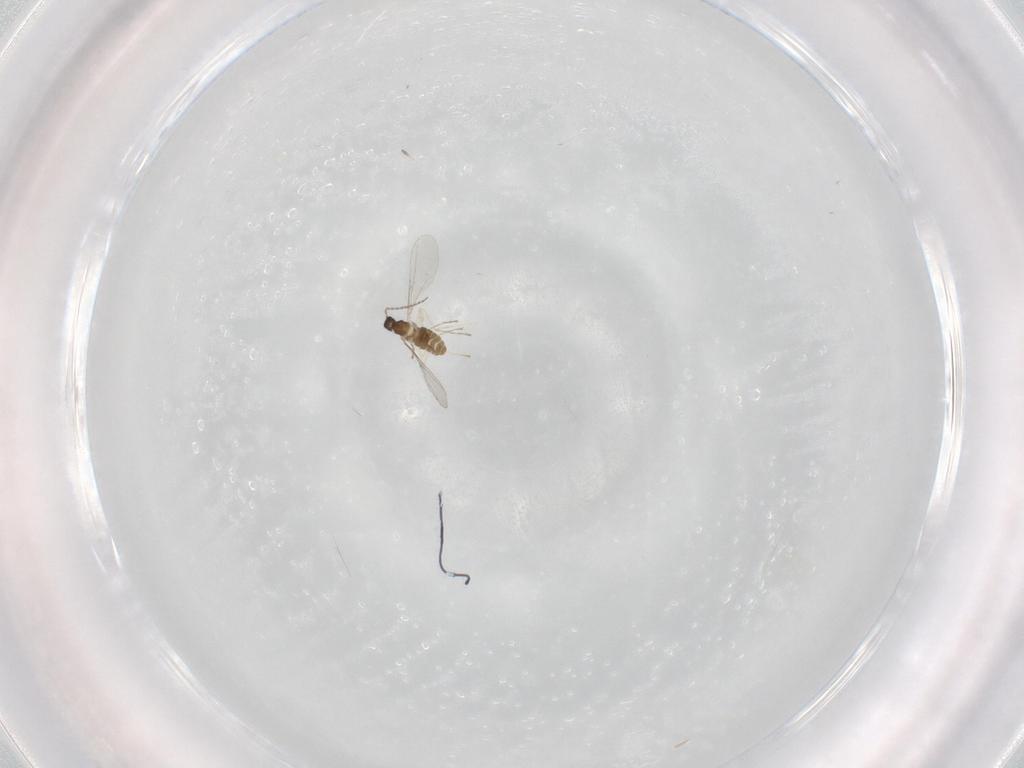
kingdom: Animalia
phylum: Arthropoda
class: Insecta
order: Diptera
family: Cecidomyiidae
